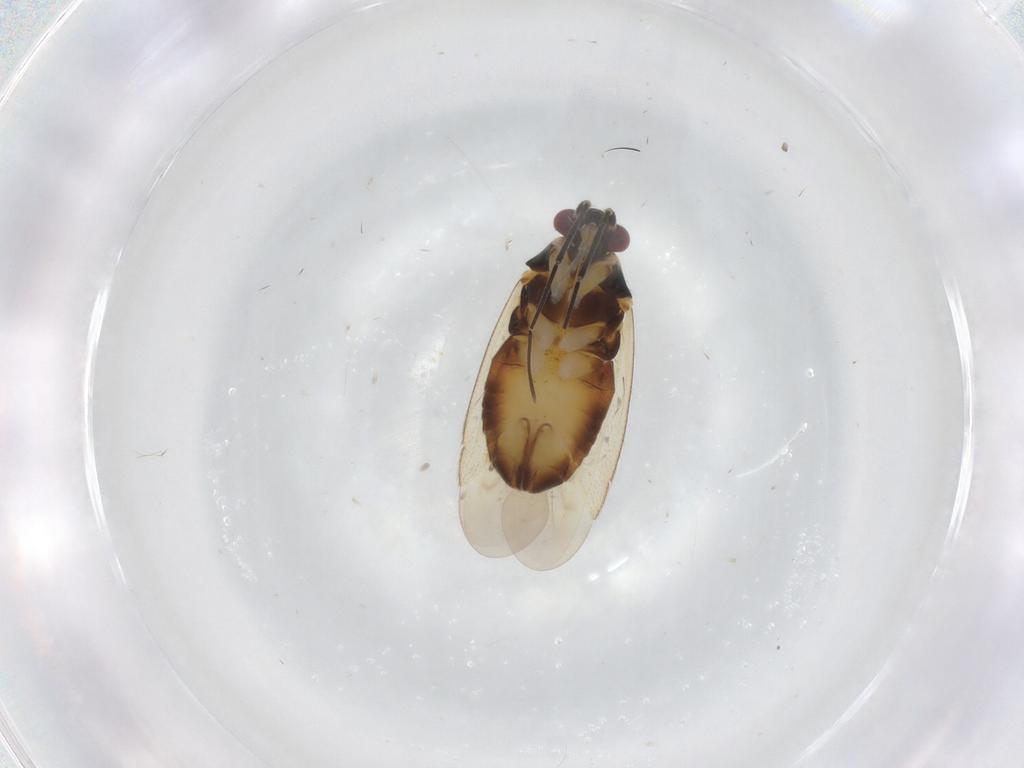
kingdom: Animalia
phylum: Arthropoda
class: Insecta
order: Hemiptera
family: Miridae
